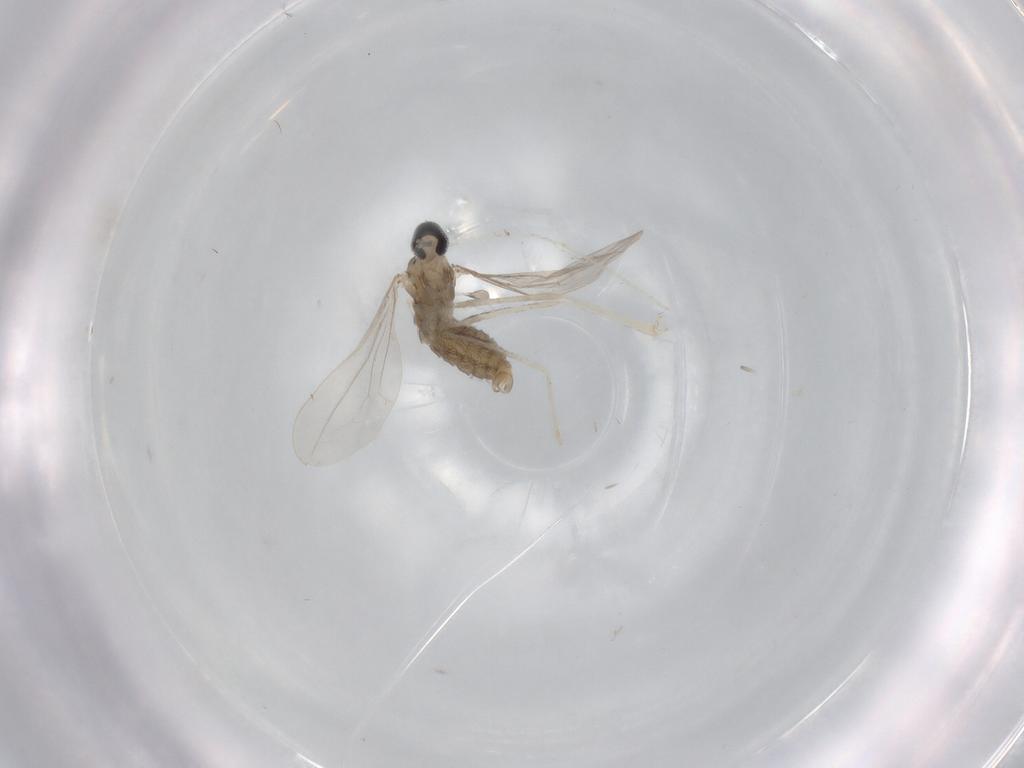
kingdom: Animalia
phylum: Arthropoda
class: Insecta
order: Diptera
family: Cecidomyiidae
